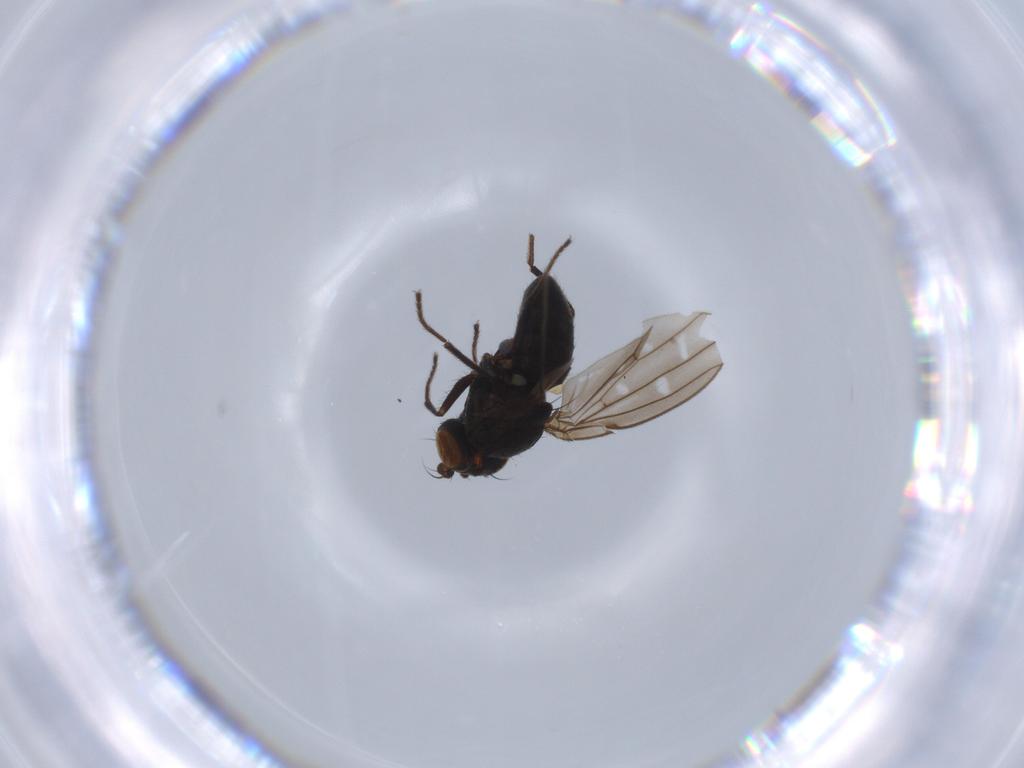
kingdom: Animalia
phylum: Arthropoda
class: Insecta
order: Diptera
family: Ephydridae
